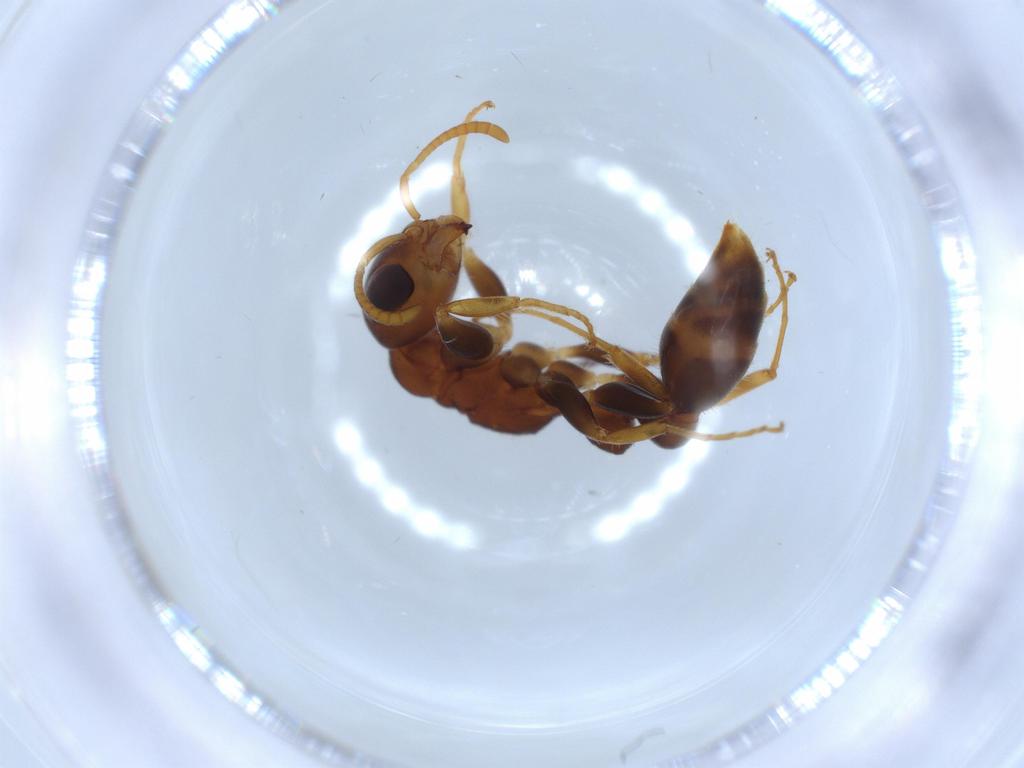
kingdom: Animalia
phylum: Arthropoda
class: Insecta
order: Hymenoptera
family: Formicidae
